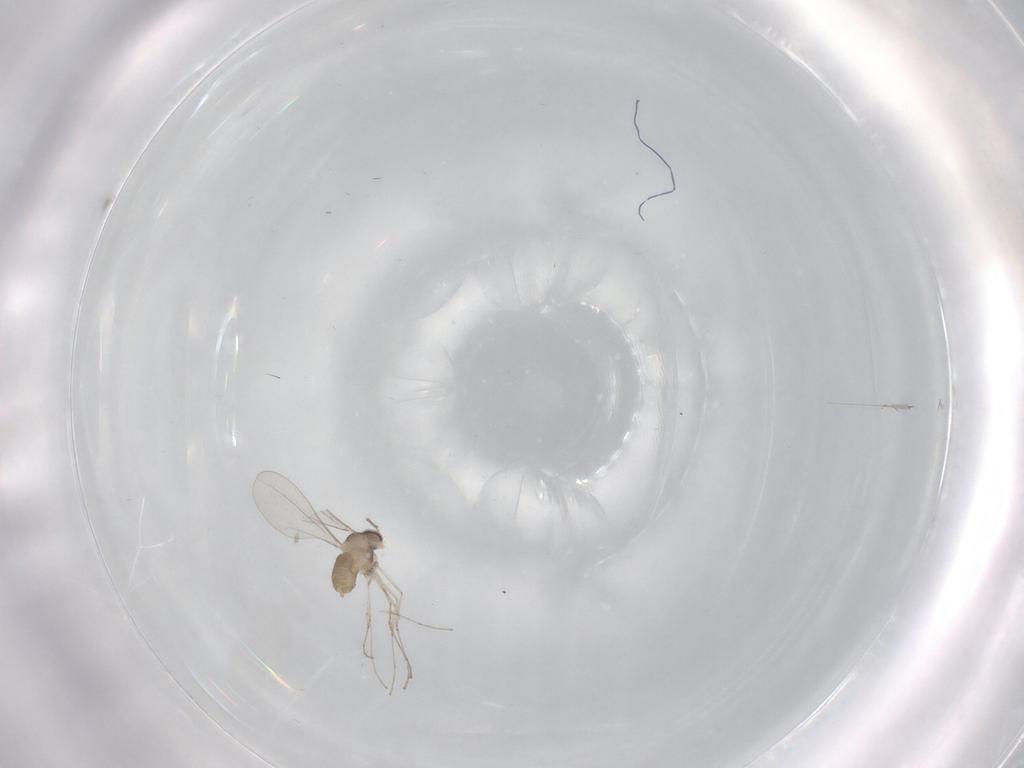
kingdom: Animalia
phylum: Arthropoda
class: Insecta
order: Diptera
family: Cecidomyiidae
